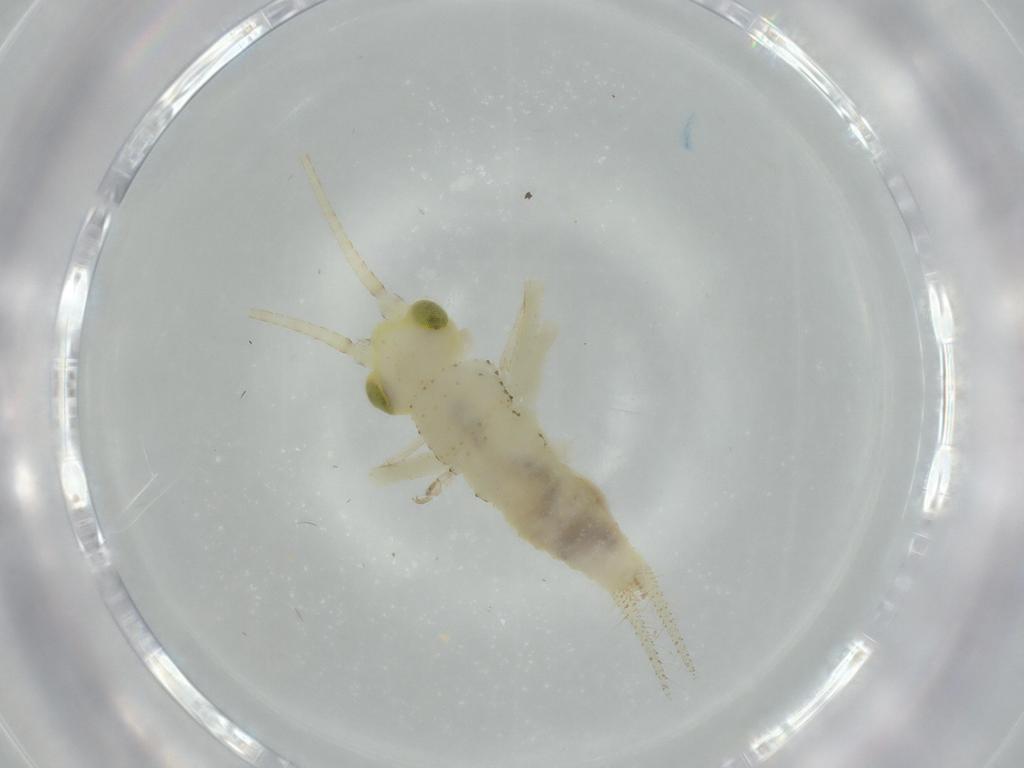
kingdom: Animalia
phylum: Arthropoda
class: Insecta
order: Orthoptera
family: Trigonidiidae
